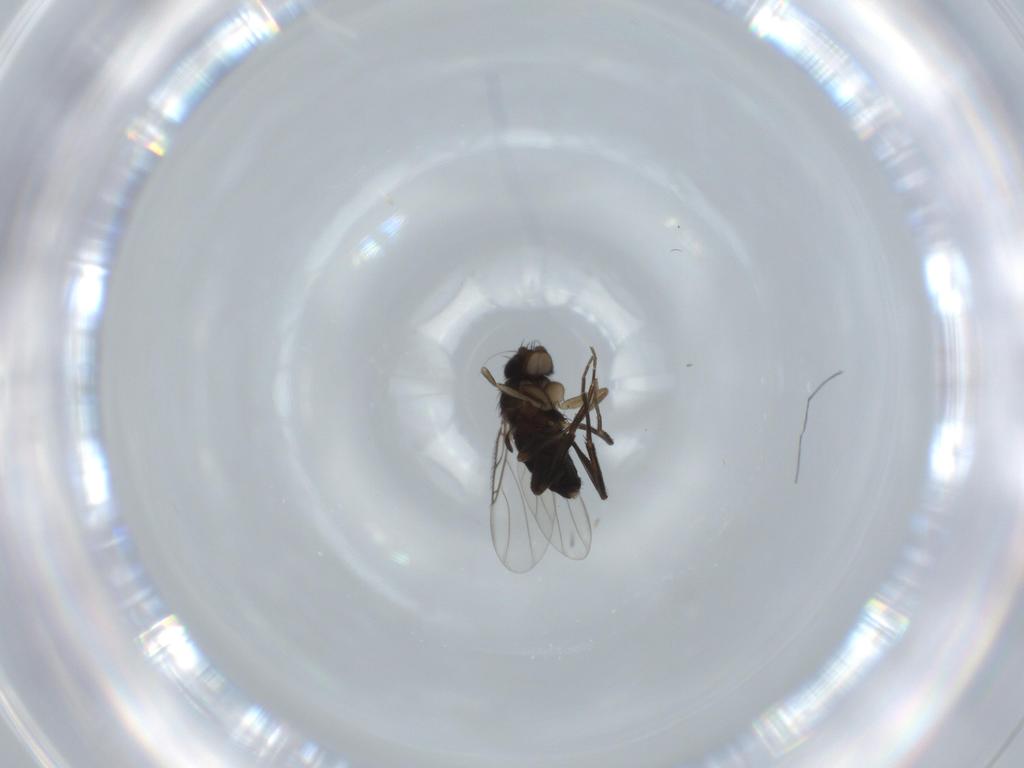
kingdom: Animalia
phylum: Arthropoda
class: Insecta
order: Diptera
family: Phoridae
